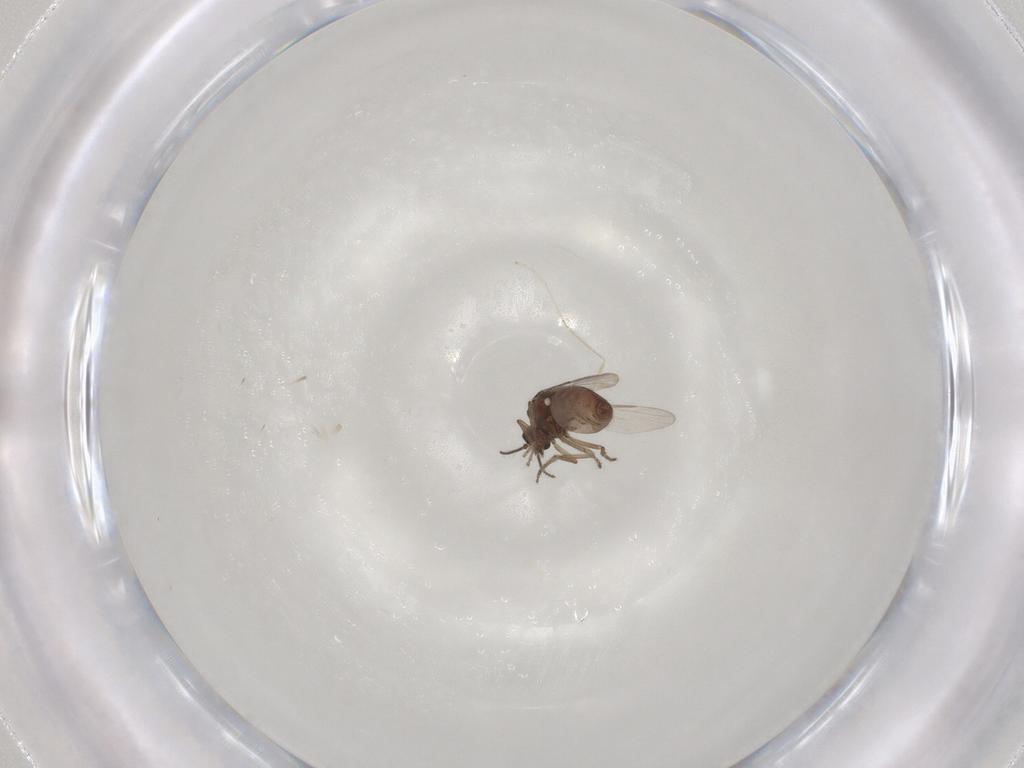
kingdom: Animalia
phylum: Arthropoda
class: Insecta
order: Diptera
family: Ceratopogonidae
